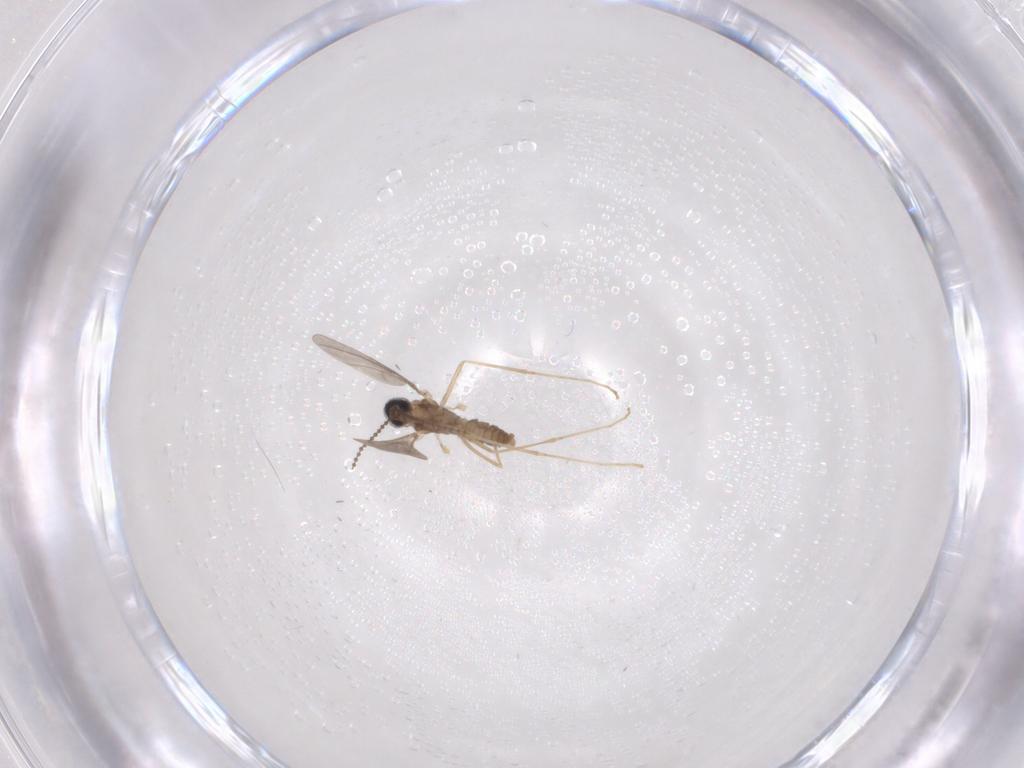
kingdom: Animalia
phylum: Arthropoda
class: Insecta
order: Diptera
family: Cecidomyiidae
